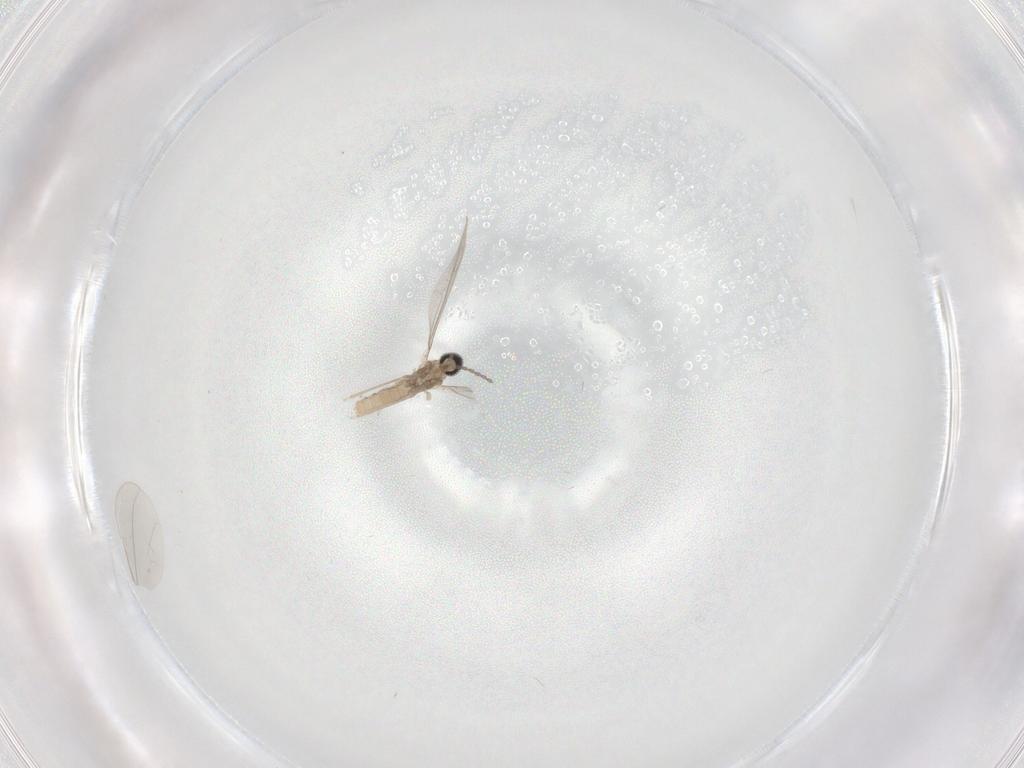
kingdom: Animalia
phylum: Arthropoda
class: Insecta
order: Diptera
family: Cecidomyiidae
